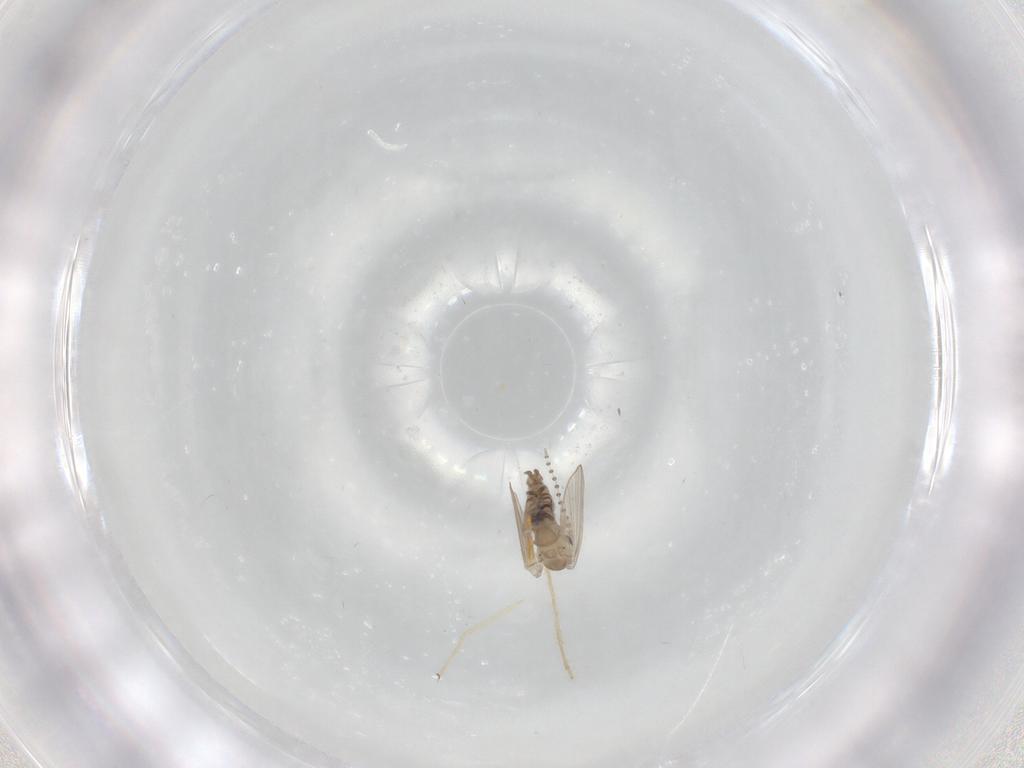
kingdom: Animalia
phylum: Arthropoda
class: Insecta
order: Diptera
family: Psychodidae
